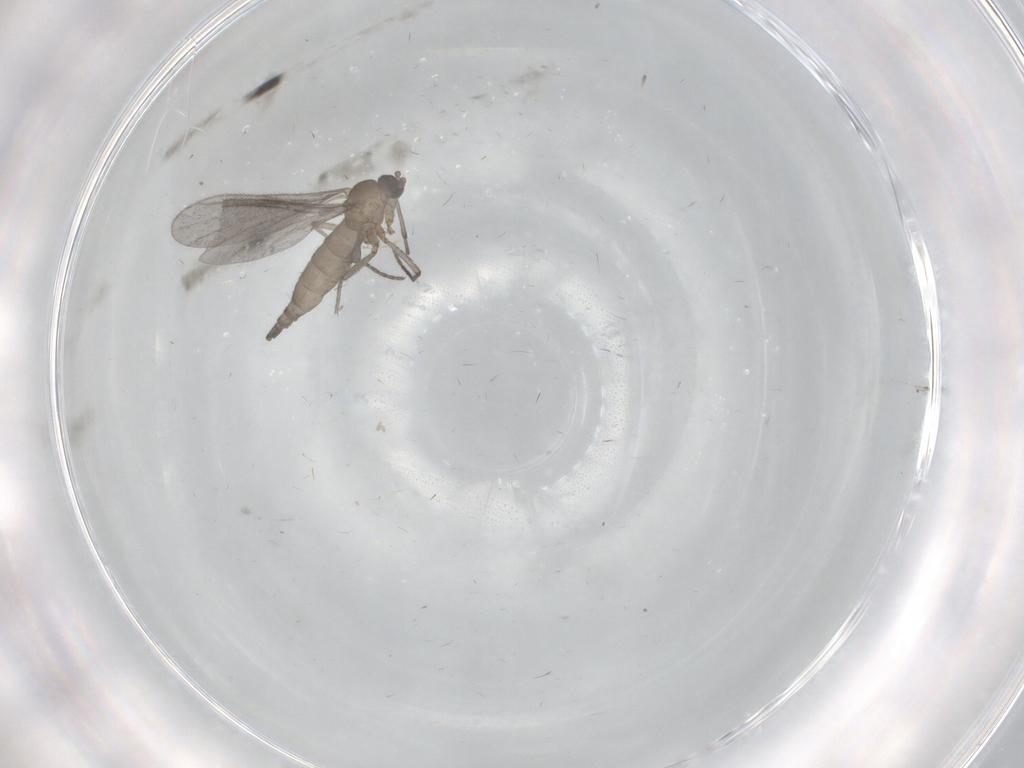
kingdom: Animalia
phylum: Arthropoda
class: Insecta
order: Diptera
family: Sciaridae
